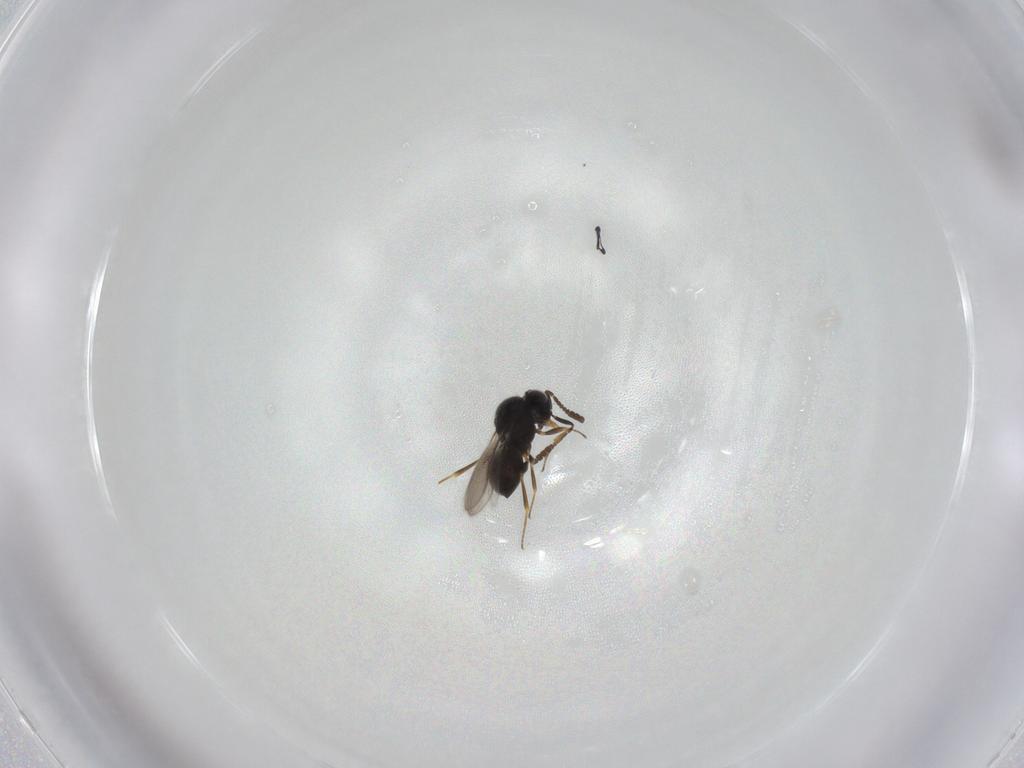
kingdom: Animalia
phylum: Arthropoda
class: Insecta
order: Hymenoptera
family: Scelionidae
